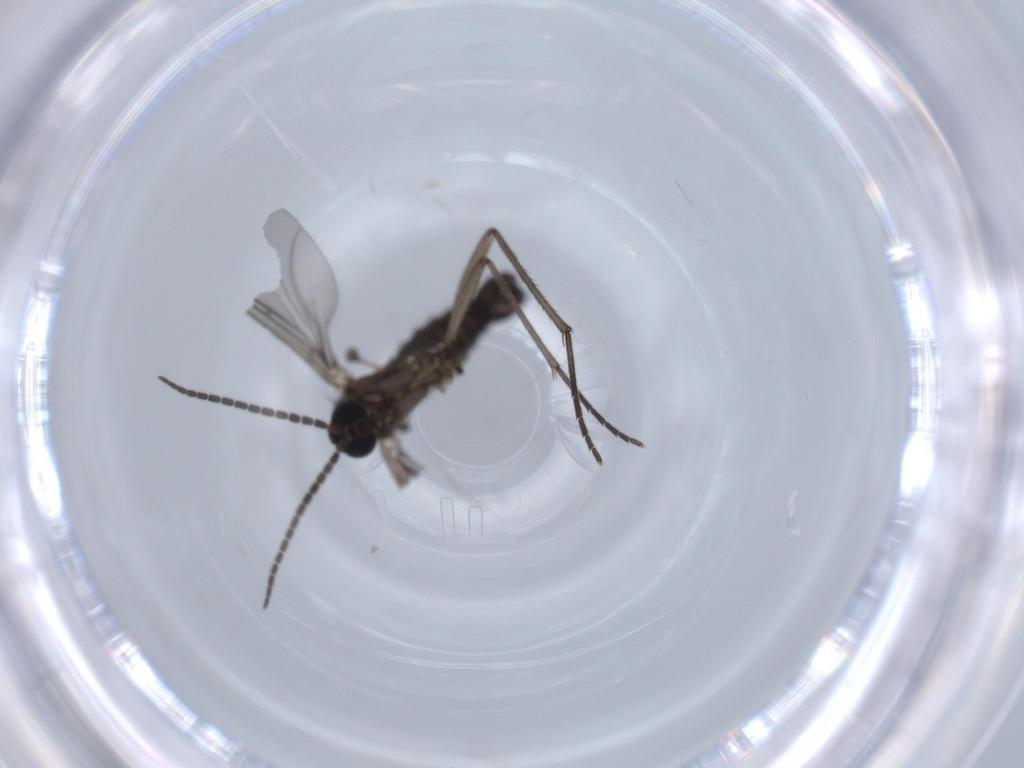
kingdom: Animalia
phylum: Arthropoda
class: Insecta
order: Diptera
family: Sciaridae
